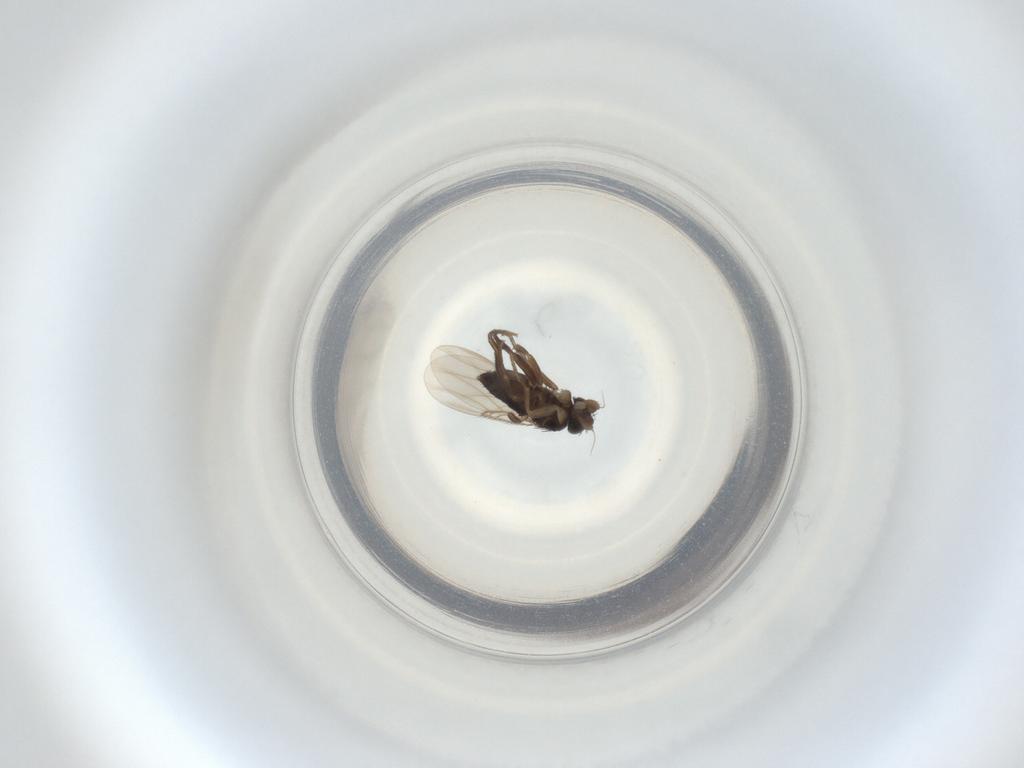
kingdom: Animalia
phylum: Arthropoda
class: Insecta
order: Diptera
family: Phoridae
